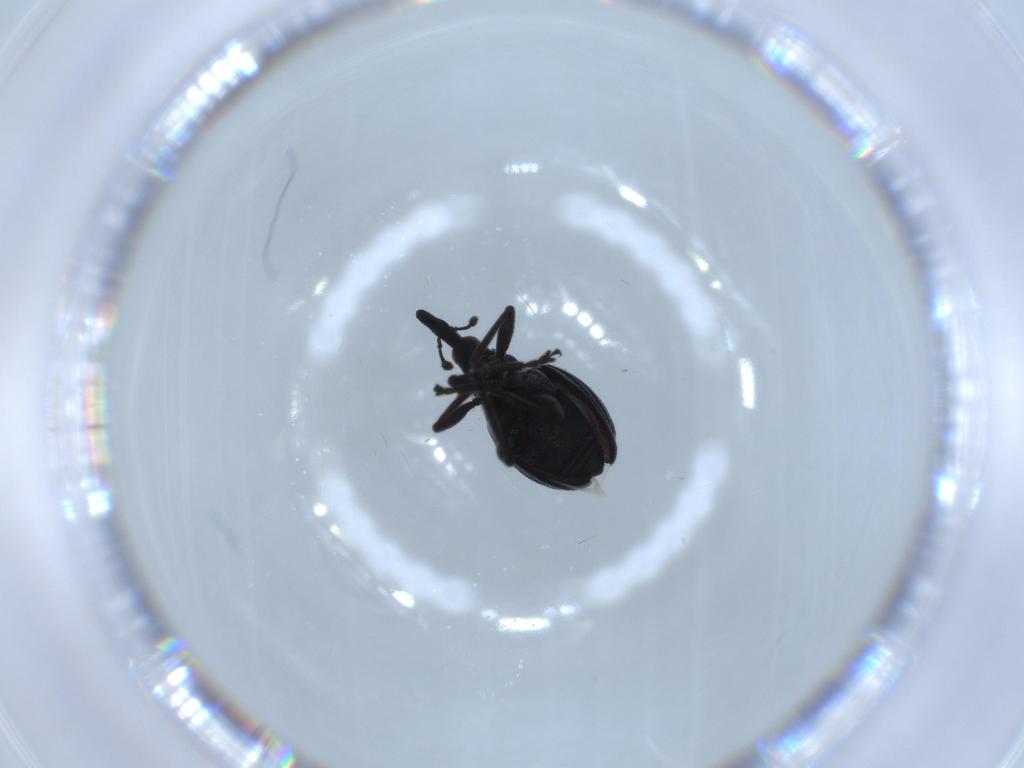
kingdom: Animalia
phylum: Arthropoda
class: Insecta
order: Coleoptera
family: Brentidae
